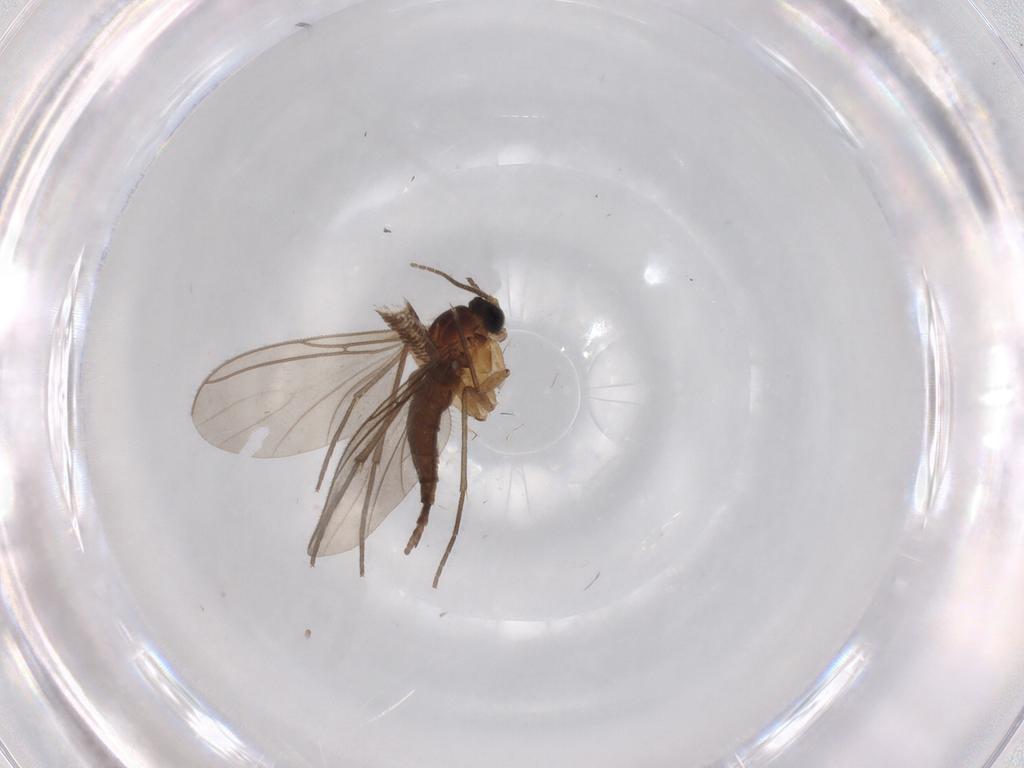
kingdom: Animalia
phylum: Arthropoda
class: Insecta
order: Diptera
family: Sciaridae
